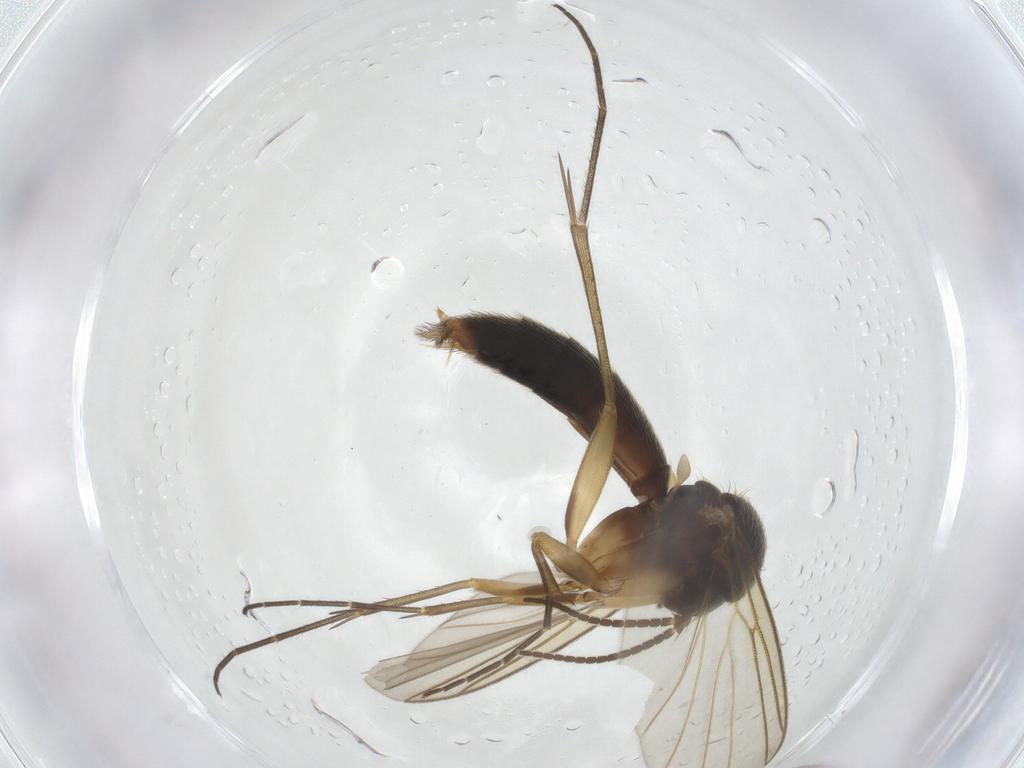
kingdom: Animalia
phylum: Arthropoda
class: Insecta
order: Diptera
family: Mycetophilidae
